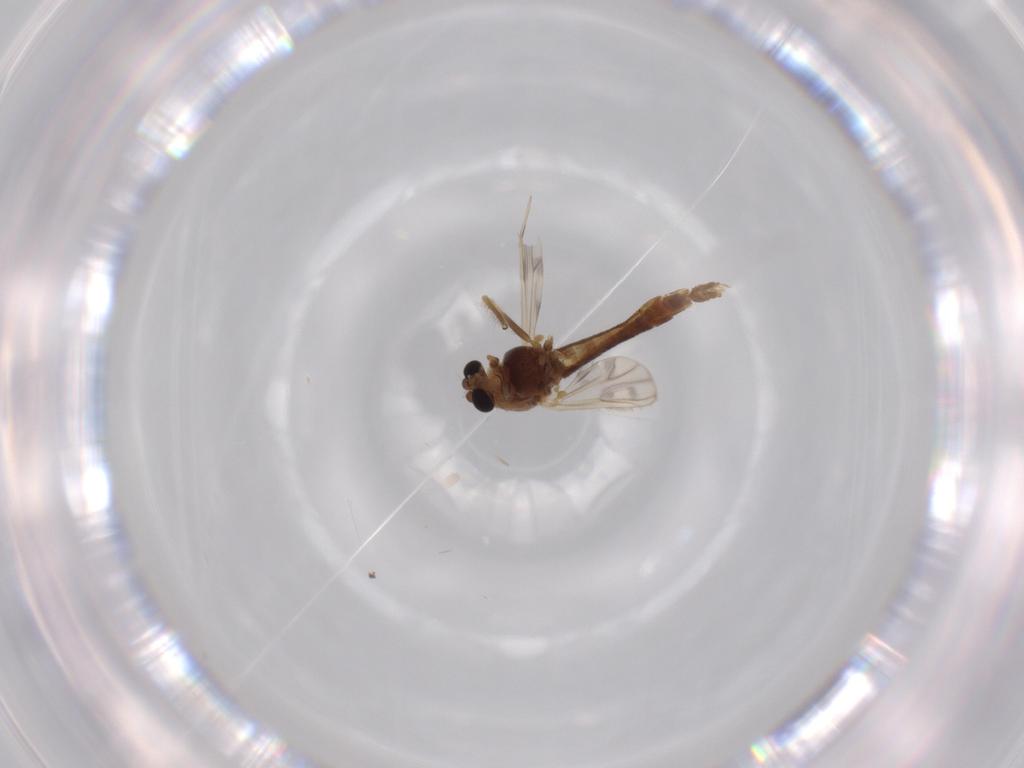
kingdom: Animalia
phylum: Arthropoda
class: Insecta
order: Diptera
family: Chironomidae
